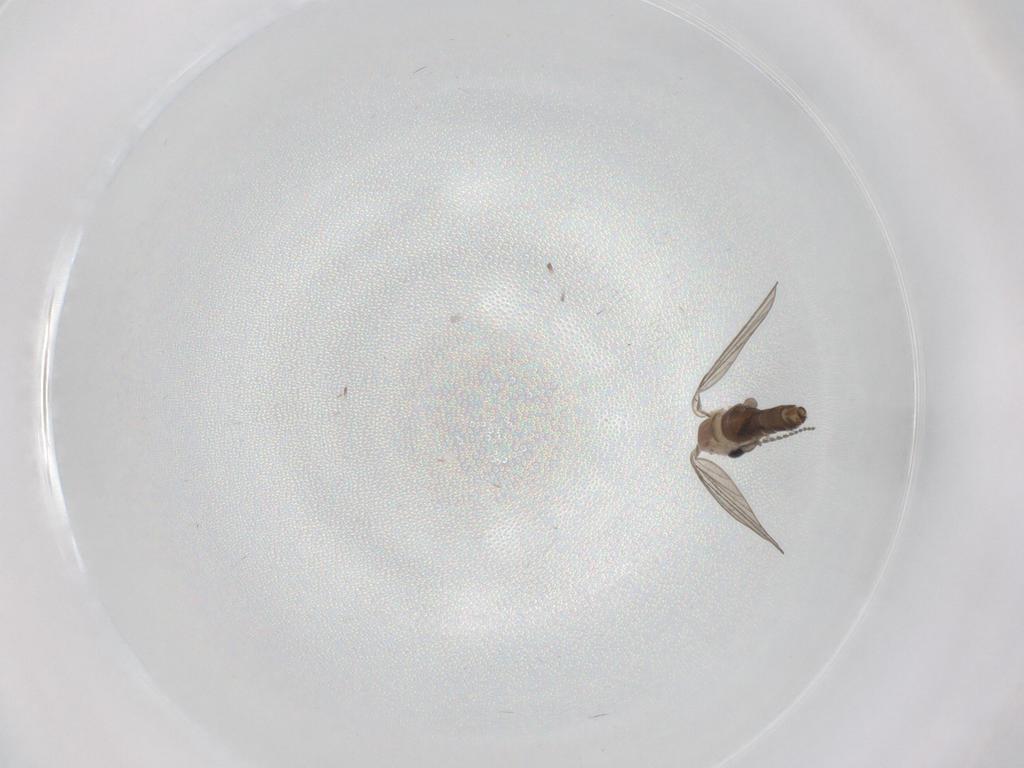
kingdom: Animalia
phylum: Arthropoda
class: Insecta
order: Diptera
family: Psychodidae
